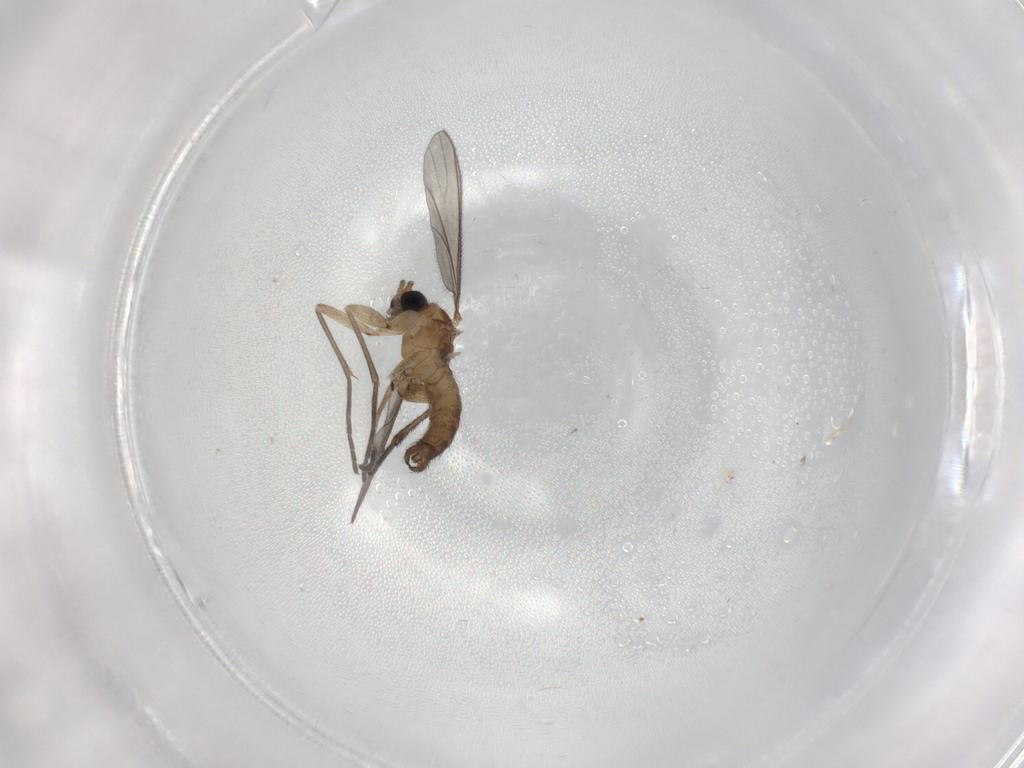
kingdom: Animalia
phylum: Arthropoda
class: Insecta
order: Diptera
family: Sciaridae
